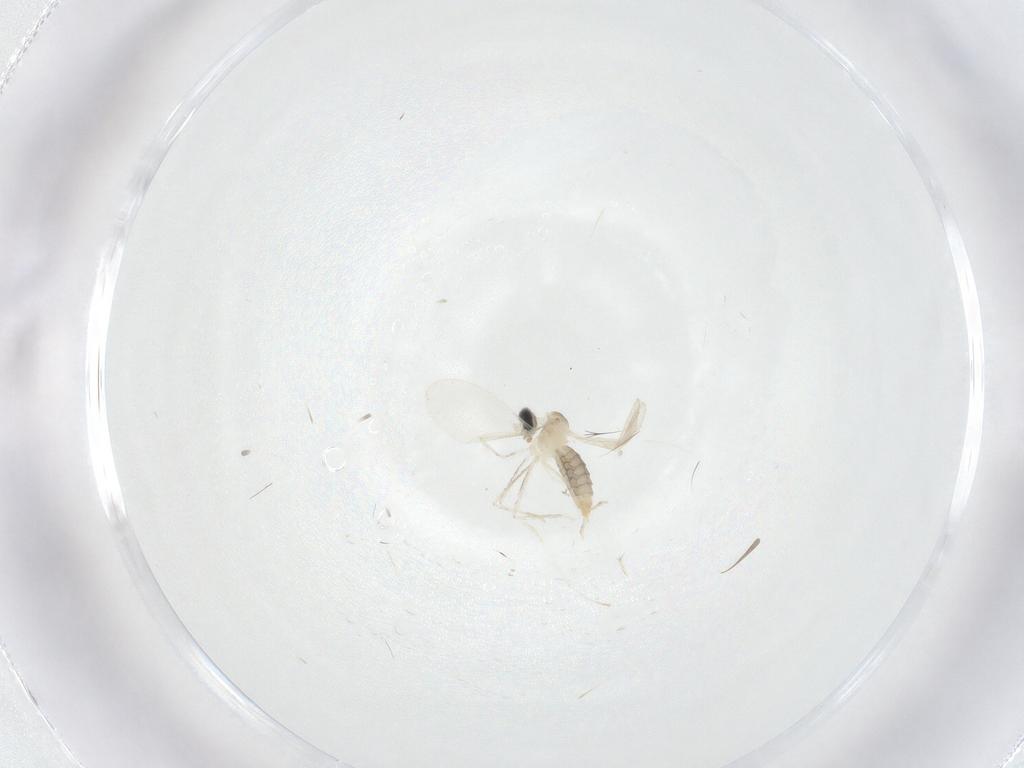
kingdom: Animalia
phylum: Arthropoda
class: Insecta
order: Diptera
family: Cecidomyiidae
